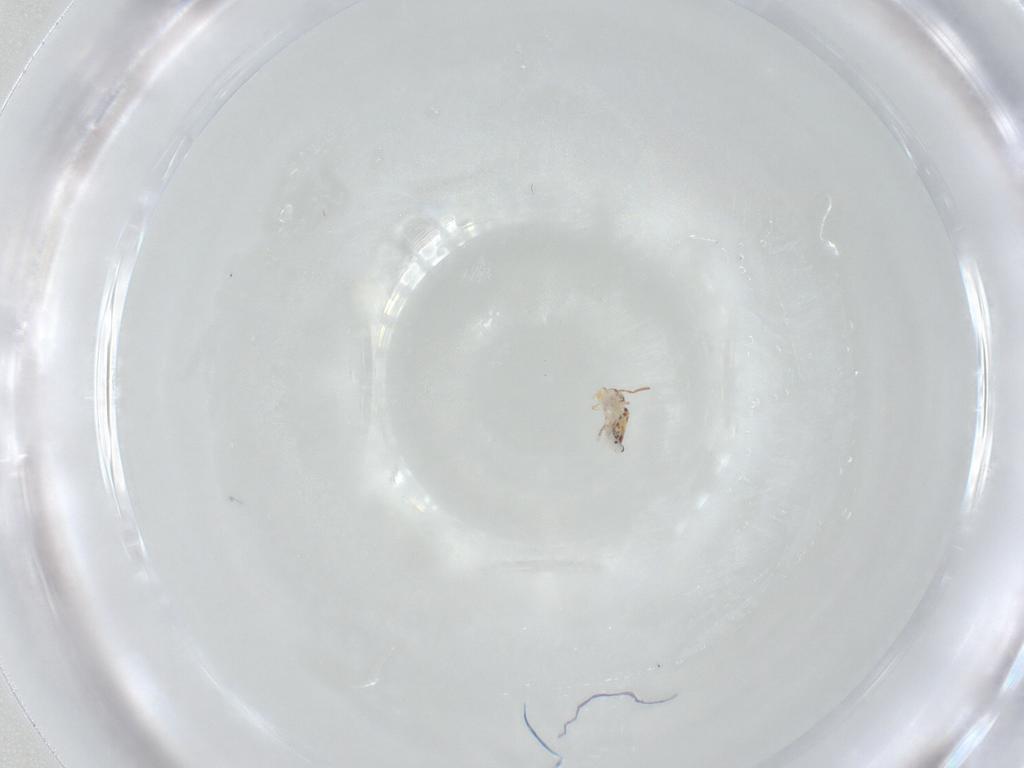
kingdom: Animalia
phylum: Arthropoda
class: Collembola
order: Symphypleona
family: Bourletiellidae
